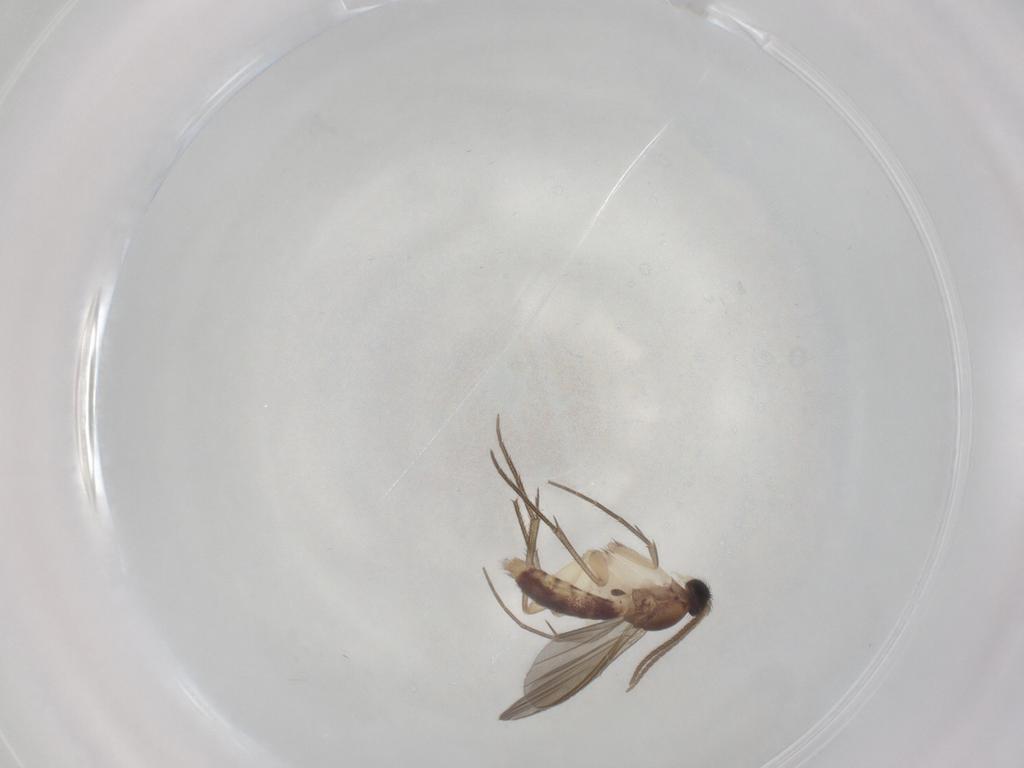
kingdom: Animalia
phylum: Arthropoda
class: Insecta
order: Diptera
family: Mycetophilidae
